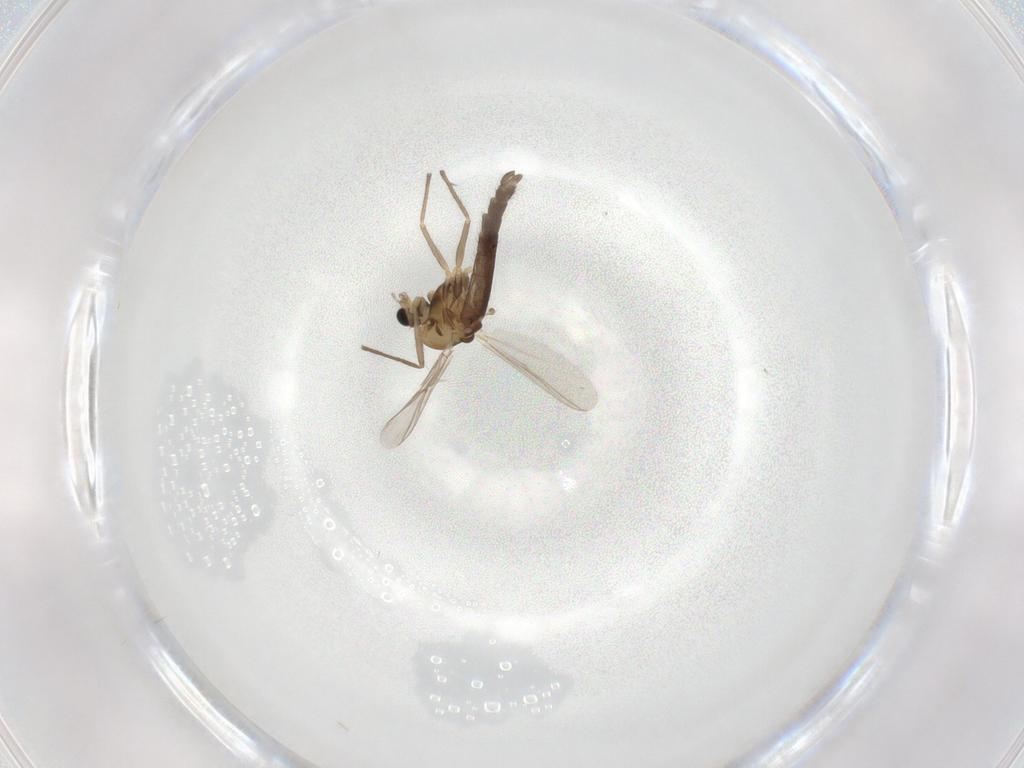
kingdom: Animalia
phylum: Arthropoda
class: Insecta
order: Diptera
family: Chironomidae
